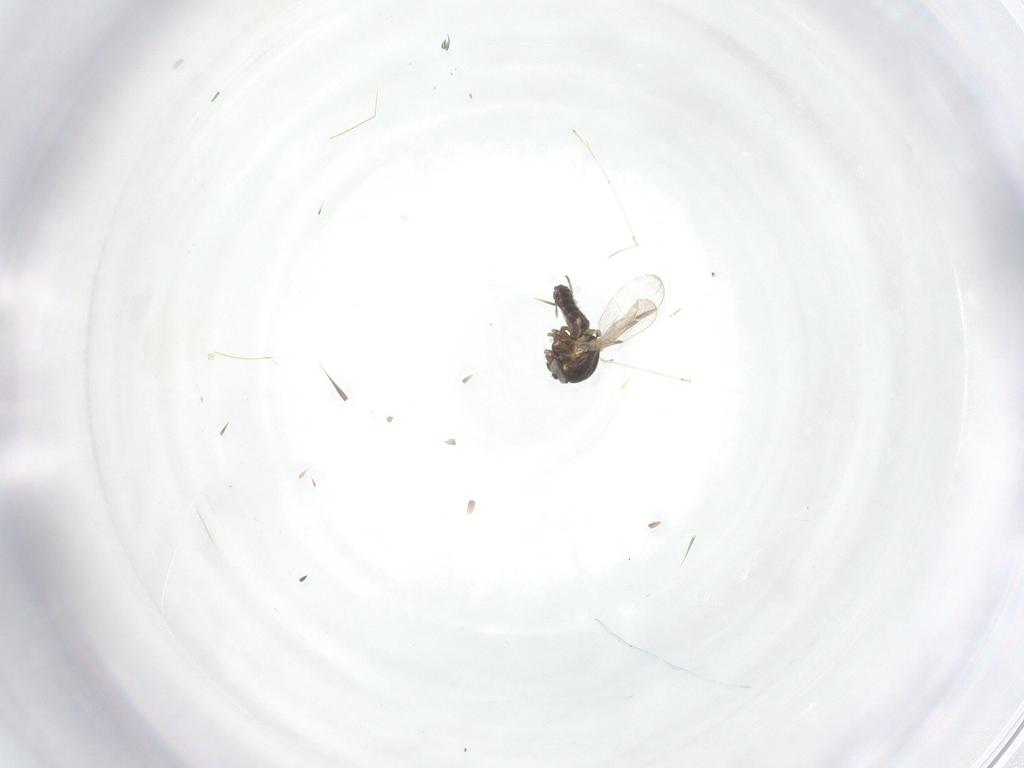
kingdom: Animalia
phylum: Arthropoda
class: Insecta
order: Diptera
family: Ceratopogonidae
